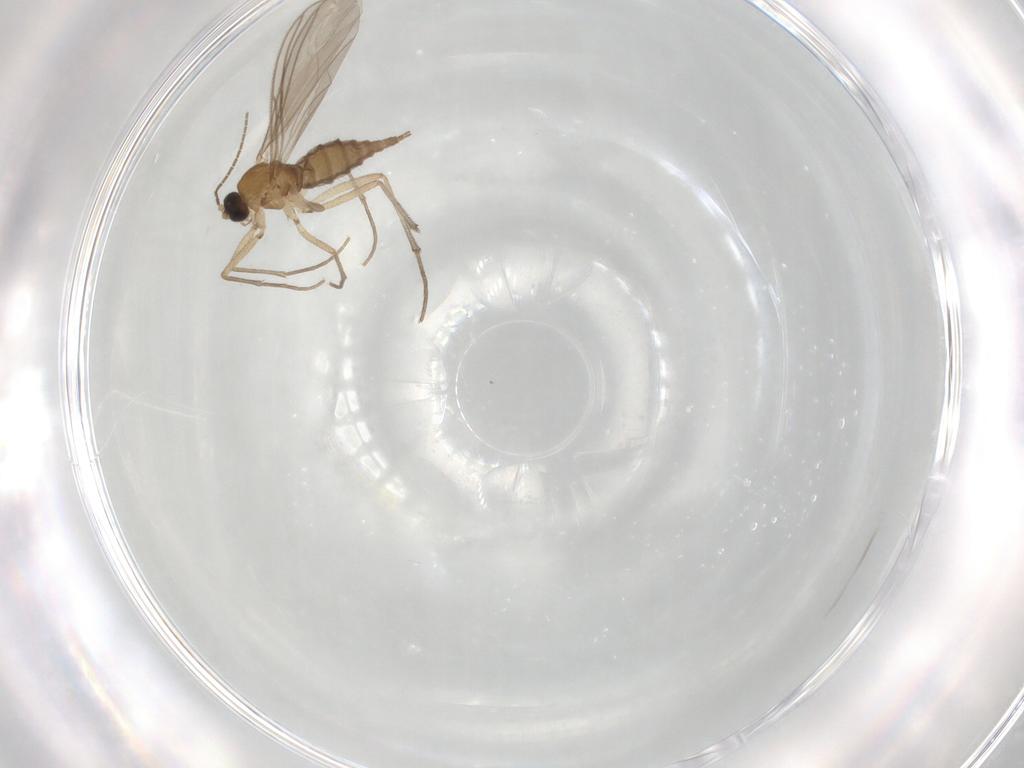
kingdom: Animalia
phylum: Arthropoda
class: Insecta
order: Diptera
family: Sciaridae
